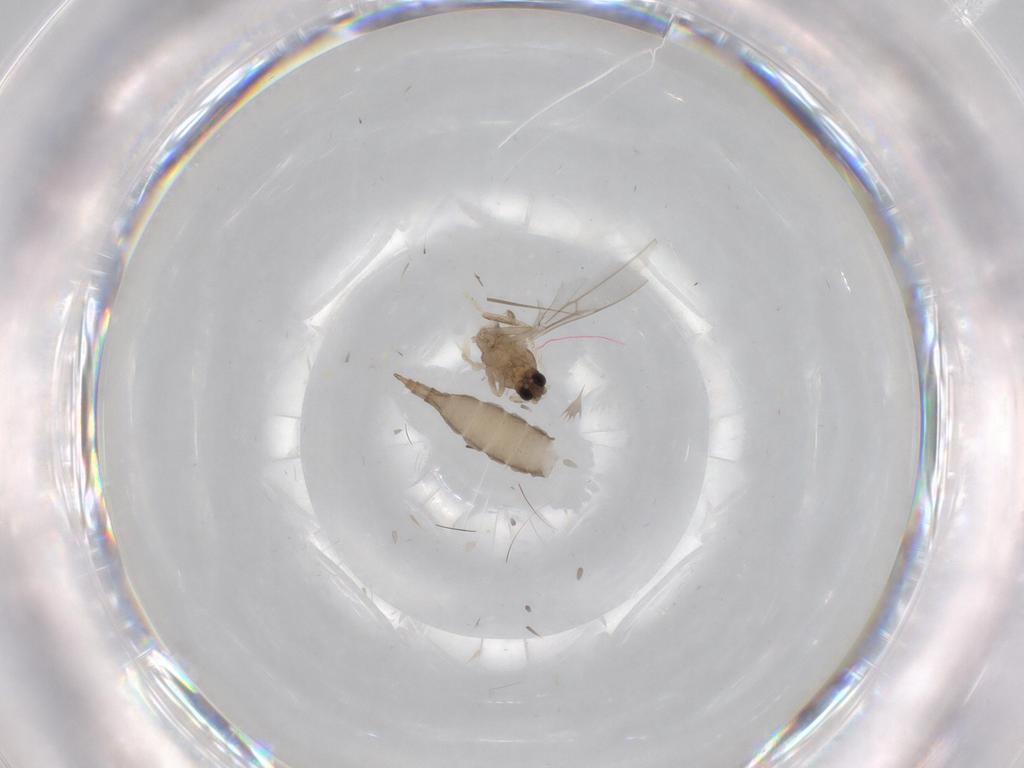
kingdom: Animalia
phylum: Arthropoda
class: Insecta
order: Diptera
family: Cecidomyiidae
